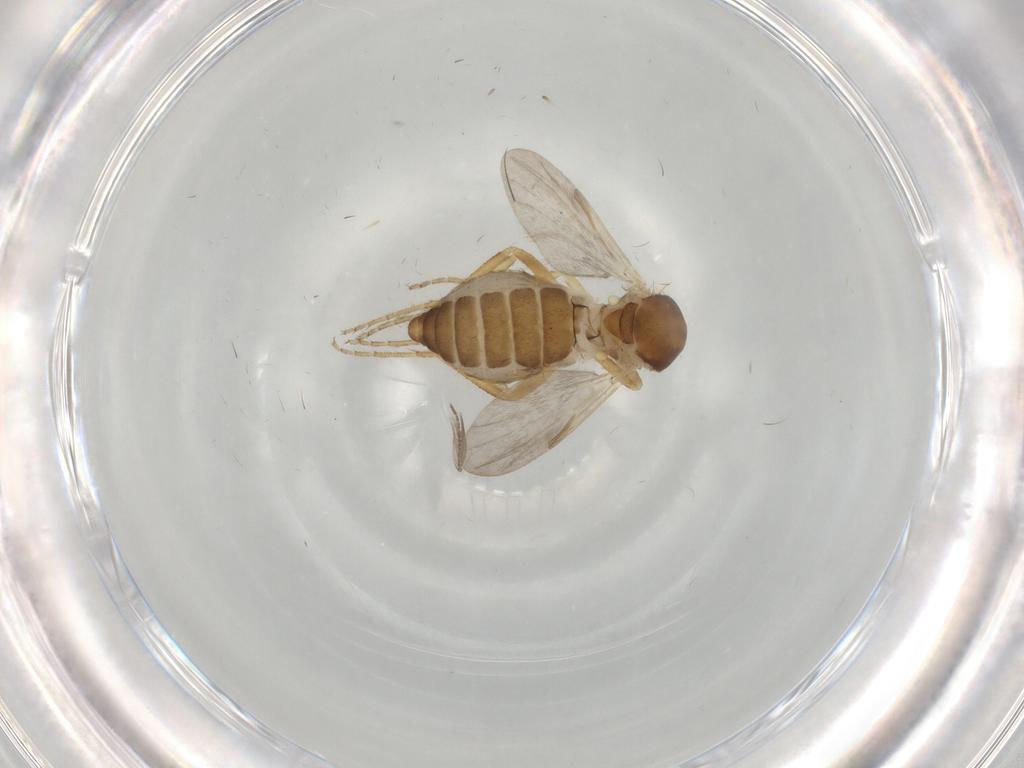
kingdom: Animalia
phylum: Arthropoda
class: Insecta
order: Diptera
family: Ceratopogonidae
